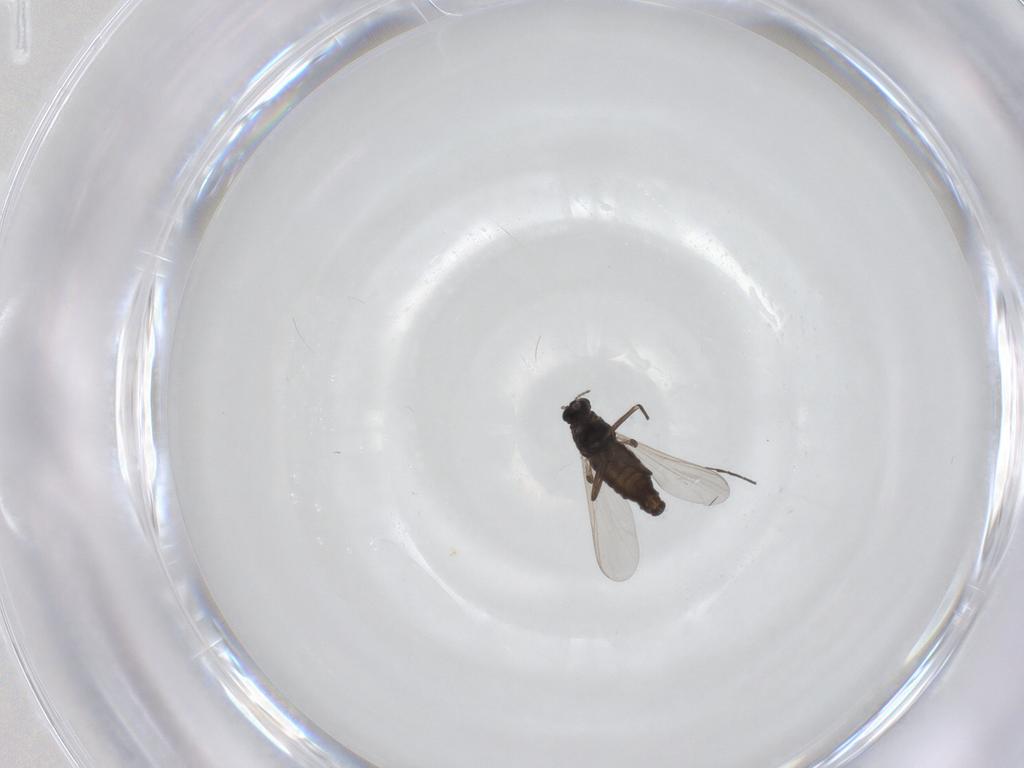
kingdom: Animalia
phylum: Arthropoda
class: Insecta
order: Diptera
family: Chironomidae
